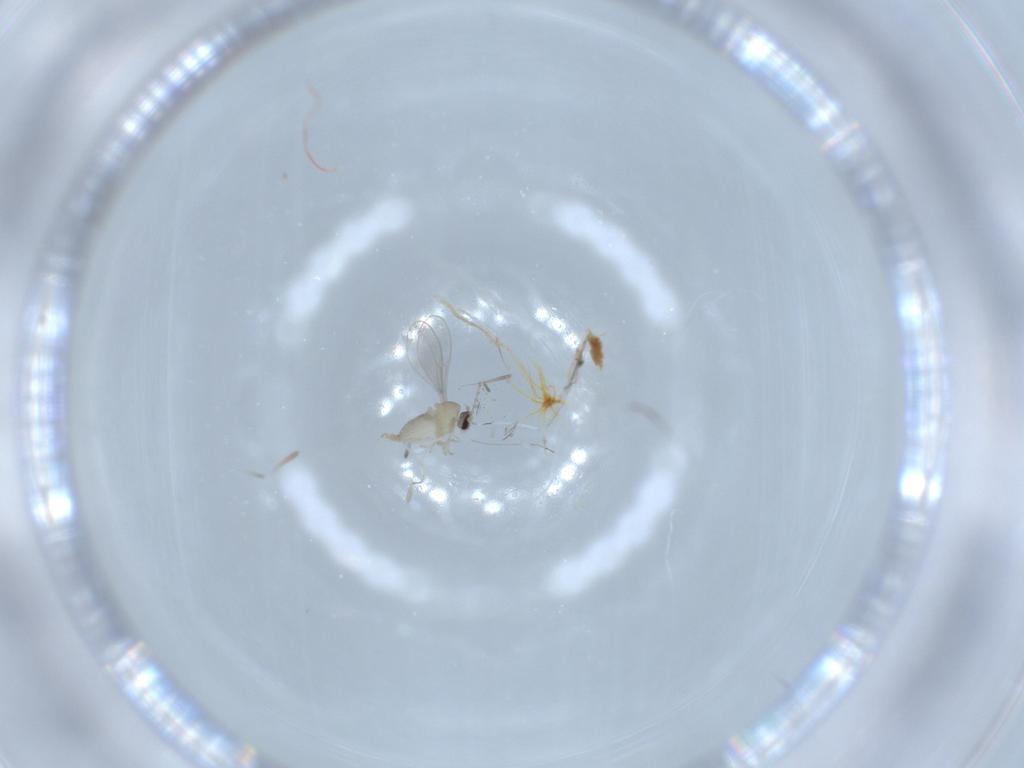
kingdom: Animalia
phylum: Arthropoda
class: Insecta
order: Diptera
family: Cecidomyiidae
